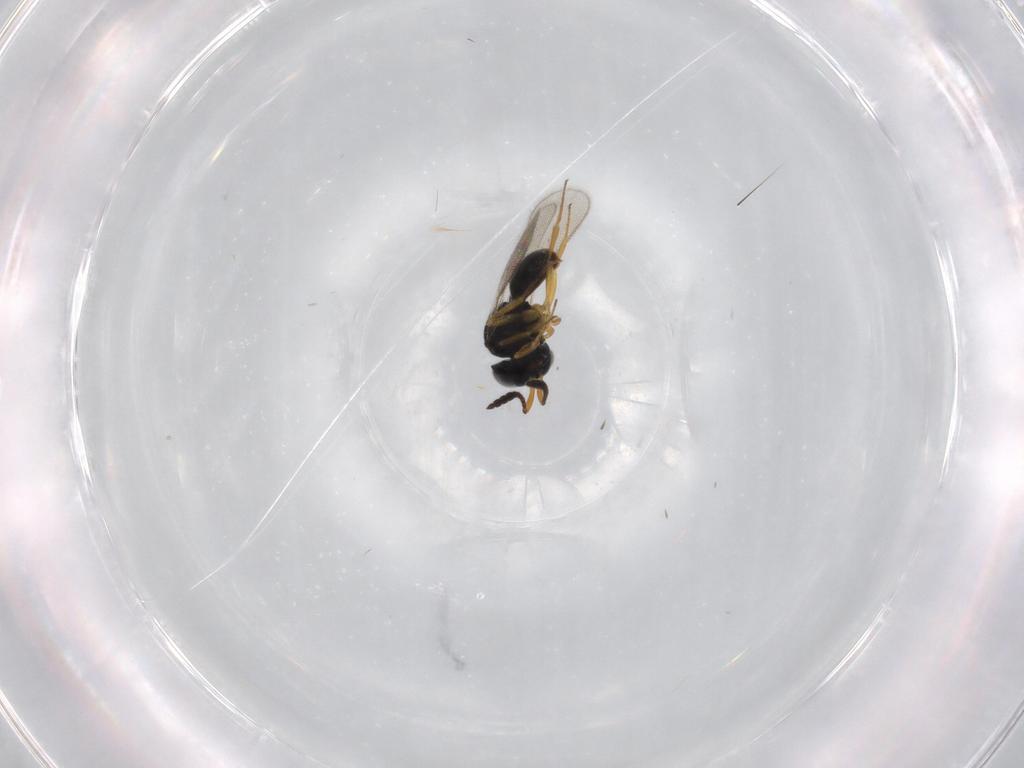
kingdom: Animalia
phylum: Arthropoda
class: Insecta
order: Hymenoptera
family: Scelionidae
